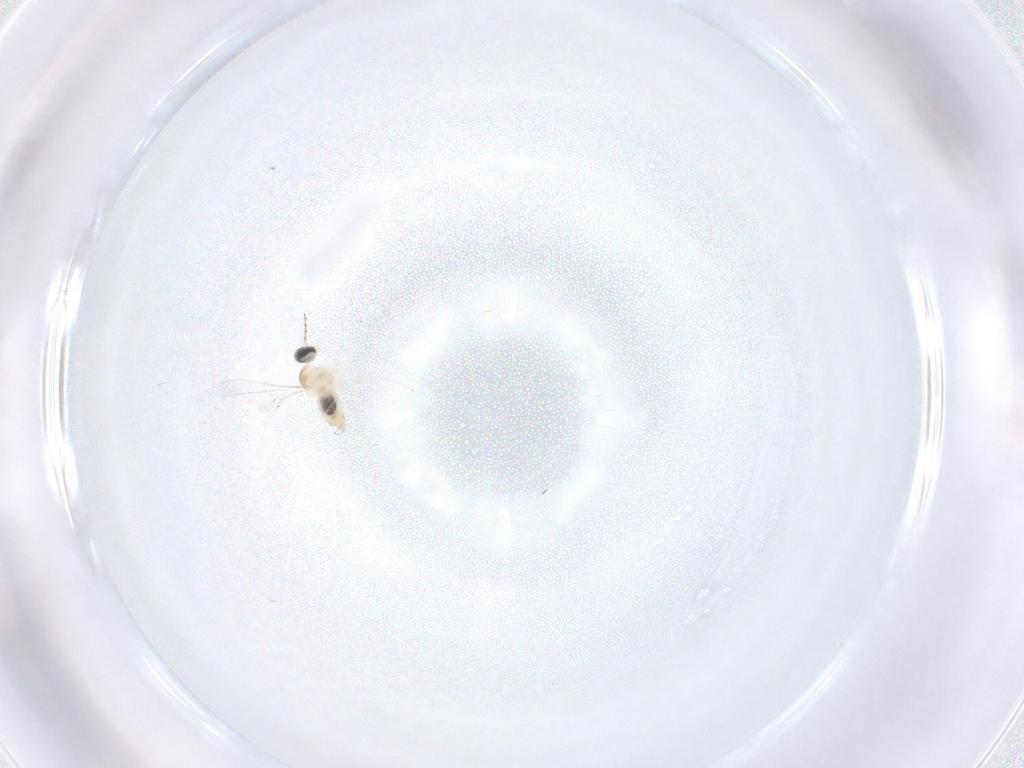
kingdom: Animalia
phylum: Arthropoda
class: Insecta
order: Diptera
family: Cecidomyiidae
